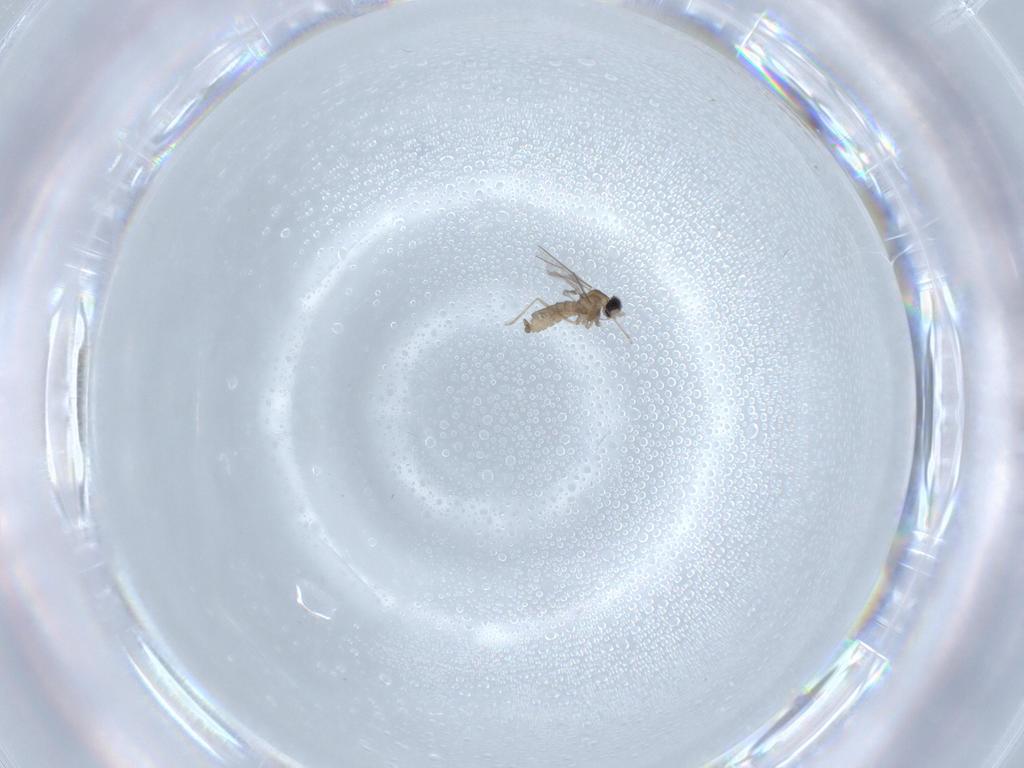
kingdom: Animalia
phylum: Arthropoda
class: Insecta
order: Diptera
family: Cecidomyiidae
